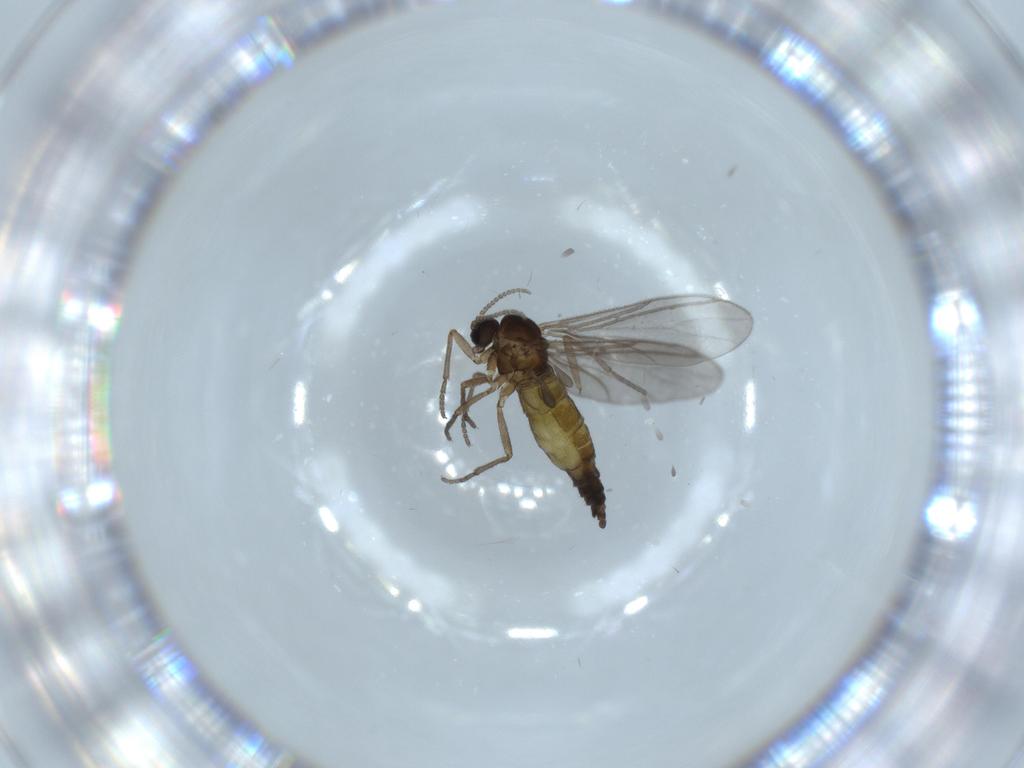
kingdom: Animalia
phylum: Arthropoda
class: Insecta
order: Diptera
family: Sciaridae
